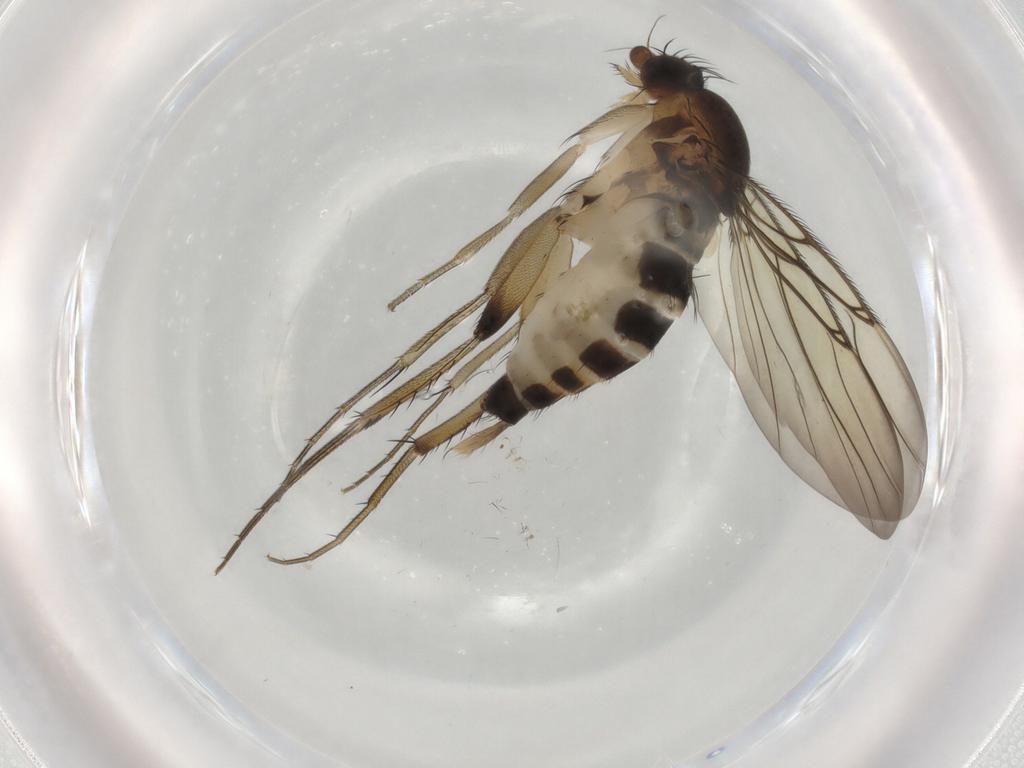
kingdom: Animalia
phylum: Arthropoda
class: Insecta
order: Diptera
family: Phoridae
